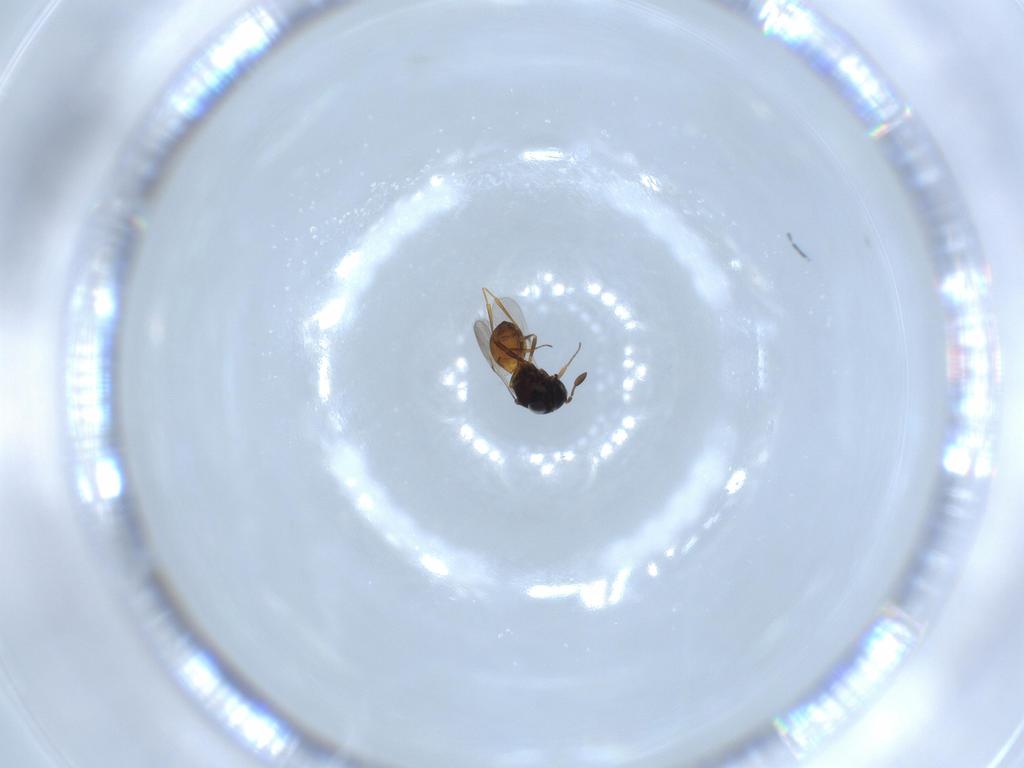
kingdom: Animalia
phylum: Arthropoda
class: Insecta
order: Hymenoptera
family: Scelionidae
